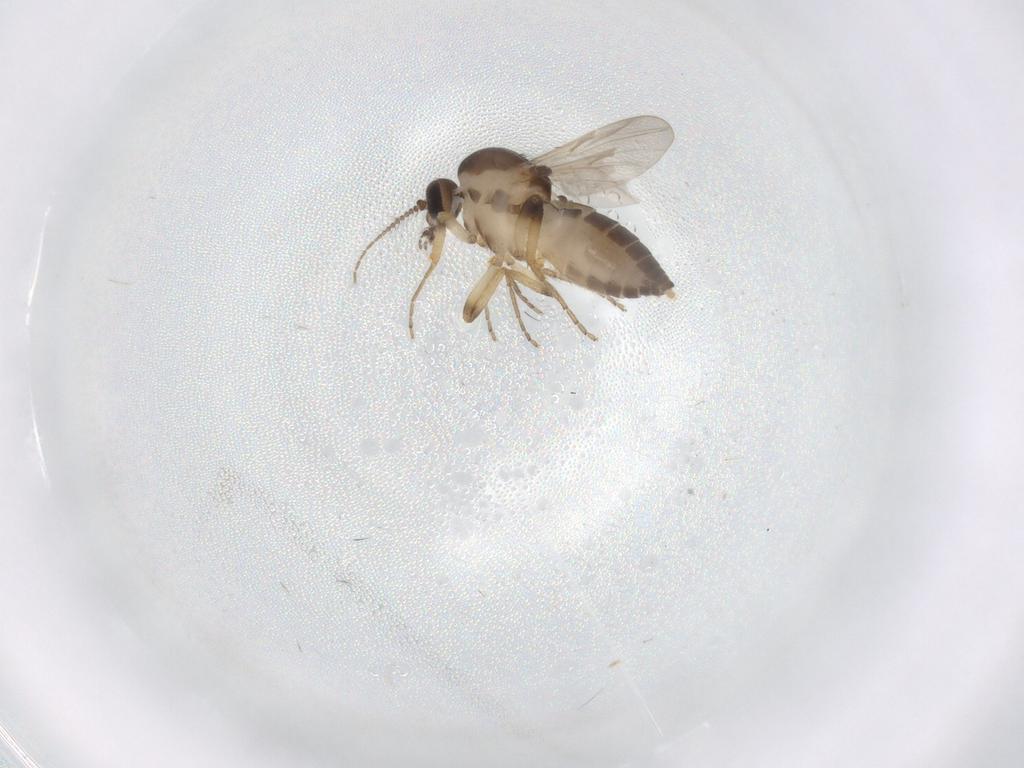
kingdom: Animalia
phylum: Arthropoda
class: Insecta
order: Diptera
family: Ceratopogonidae
